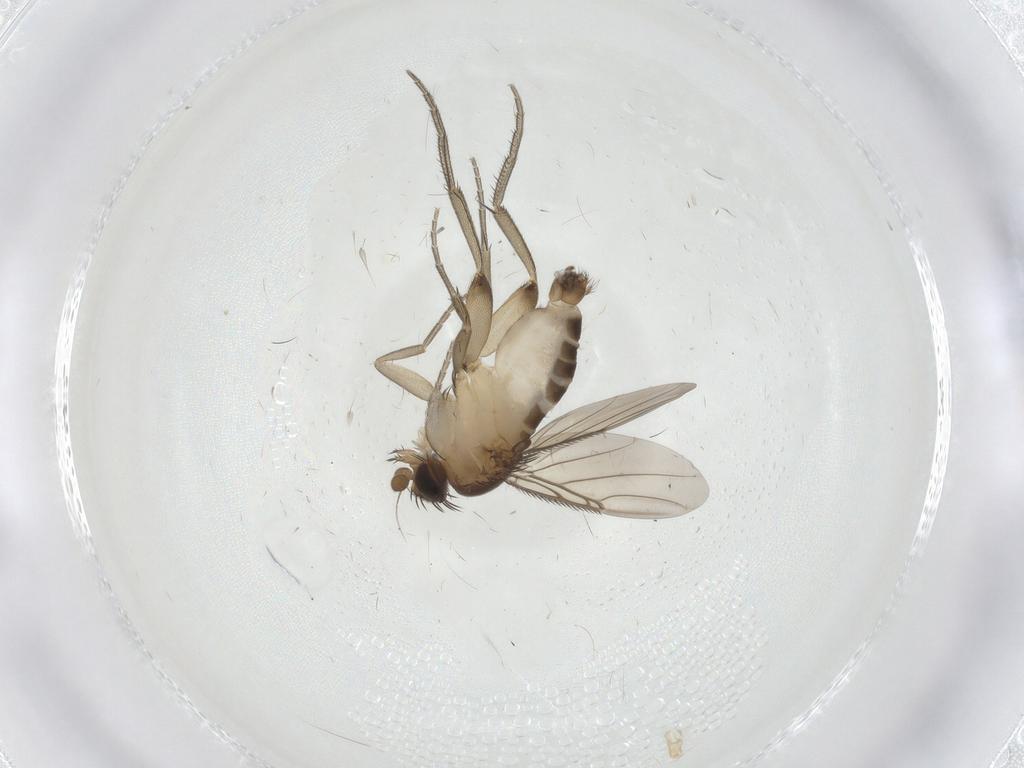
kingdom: Animalia
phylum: Arthropoda
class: Insecta
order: Diptera
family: Phoridae
